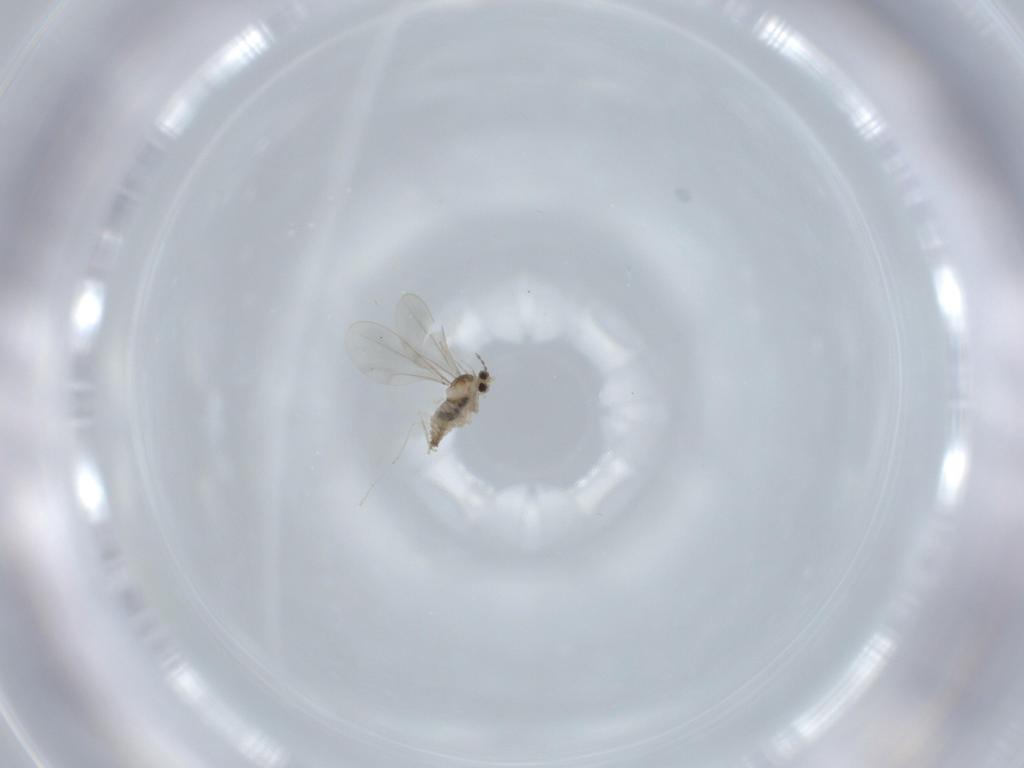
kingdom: Animalia
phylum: Arthropoda
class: Insecta
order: Diptera
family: Cecidomyiidae
